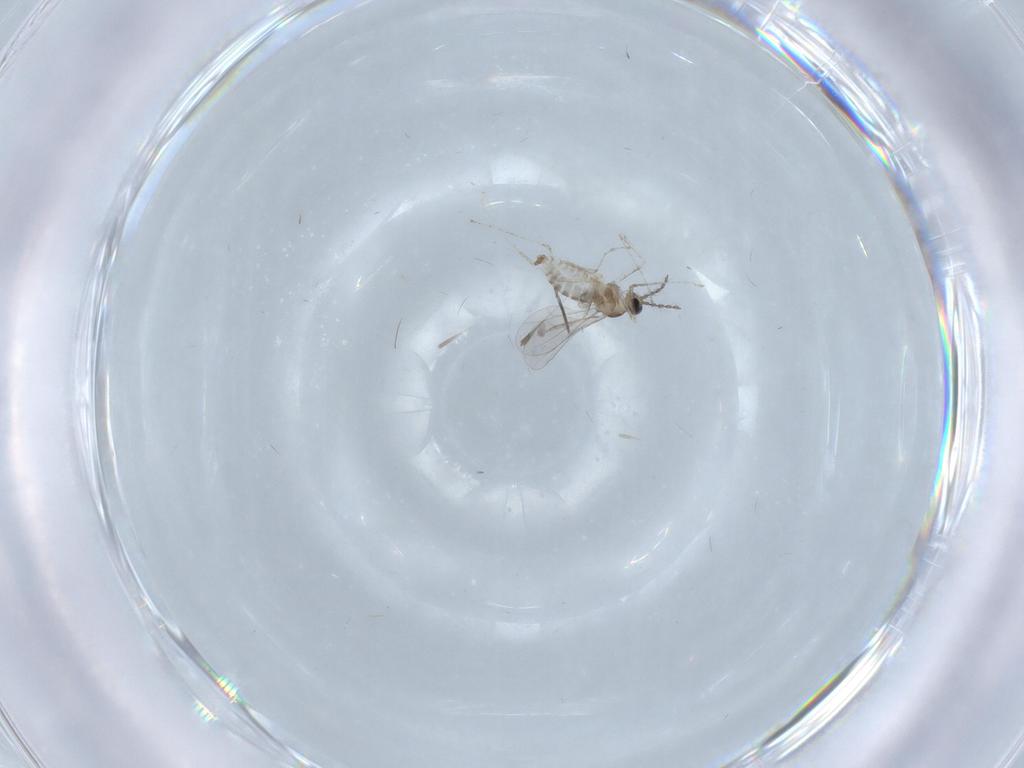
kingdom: Animalia
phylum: Arthropoda
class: Insecta
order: Diptera
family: Cecidomyiidae
